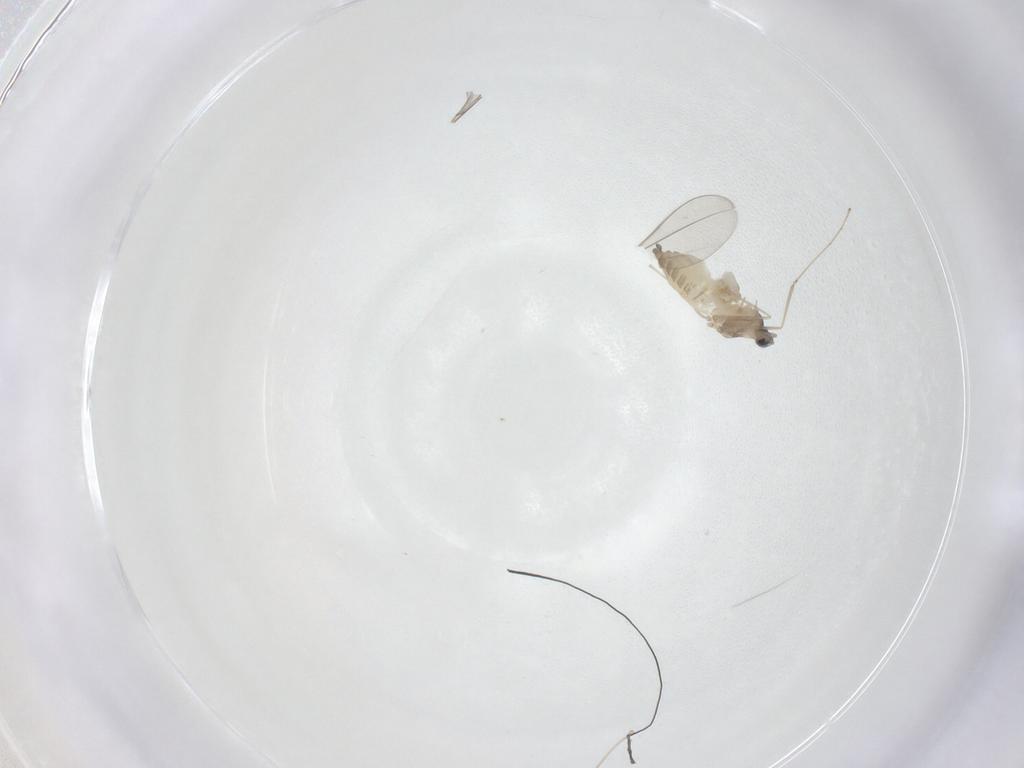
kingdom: Animalia
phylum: Arthropoda
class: Insecta
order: Diptera
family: Cecidomyiidae
